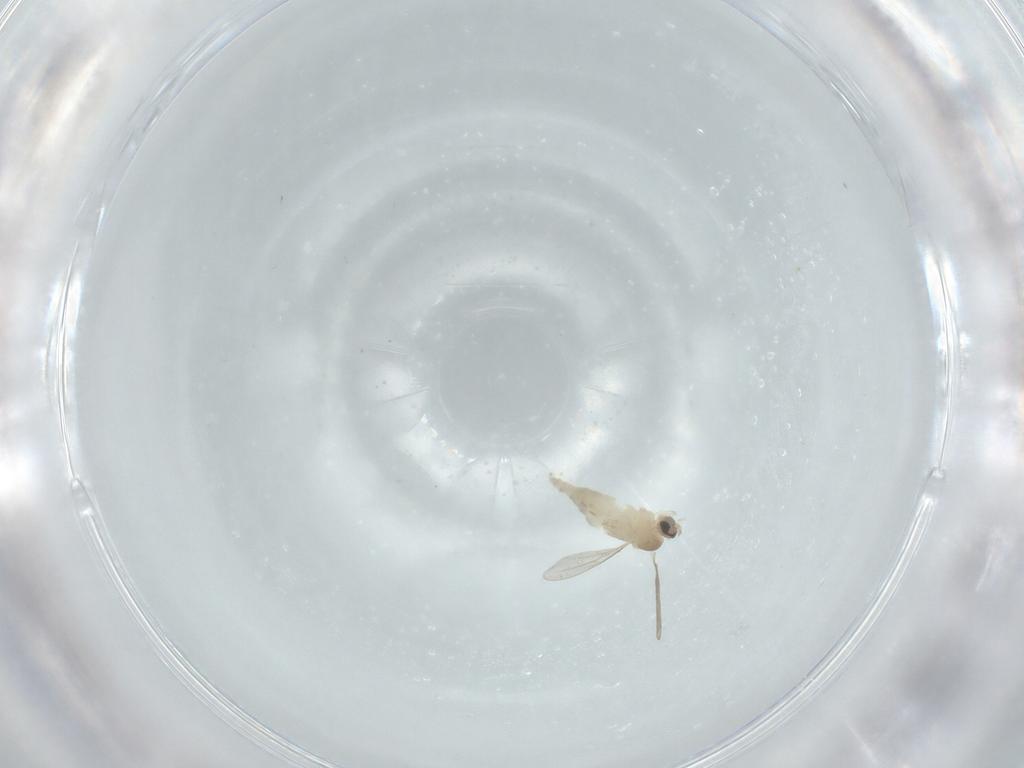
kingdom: Animalia
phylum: Arthropoda
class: Insecta
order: Diptera
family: Cecidomyiidae
